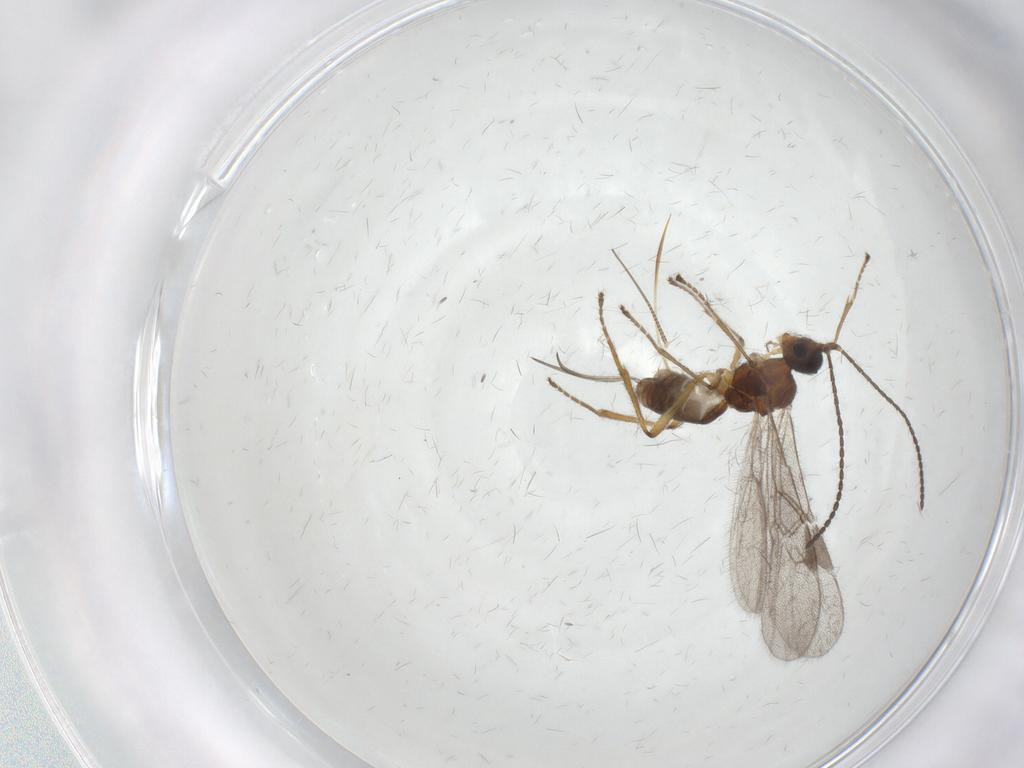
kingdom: Animalia
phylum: Arthropoda
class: Insecta
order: Hymenoptera
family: Braconidae
